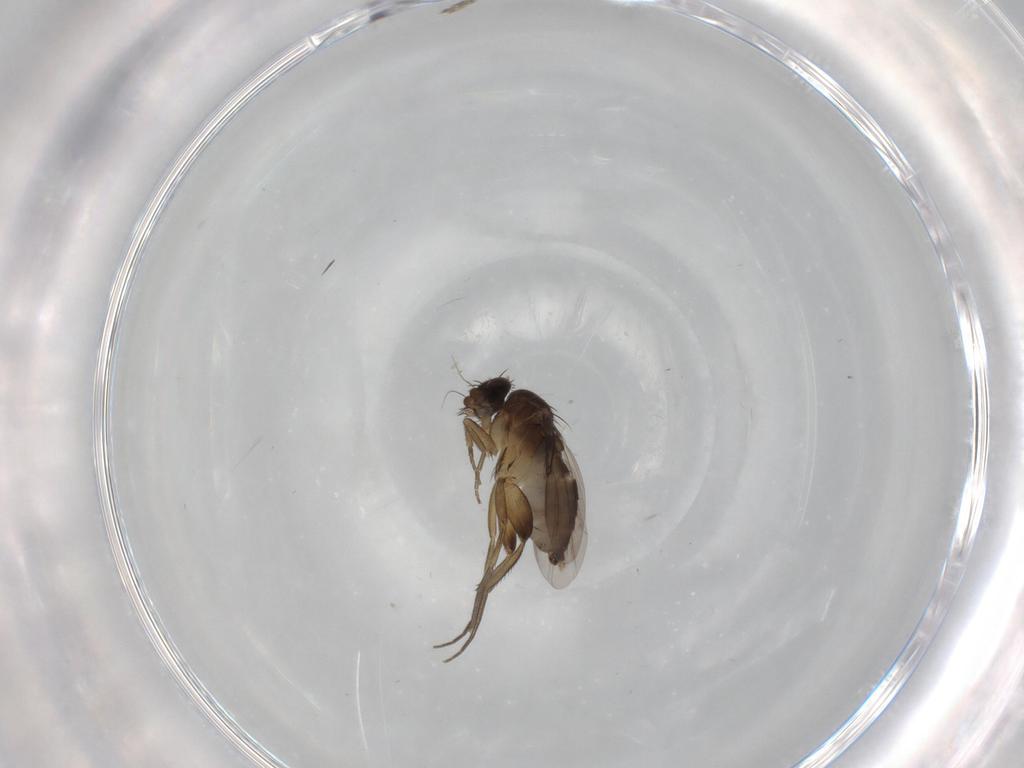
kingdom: Animalia
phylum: Arthropoda
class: Insecta
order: Diptera
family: Phoridae
